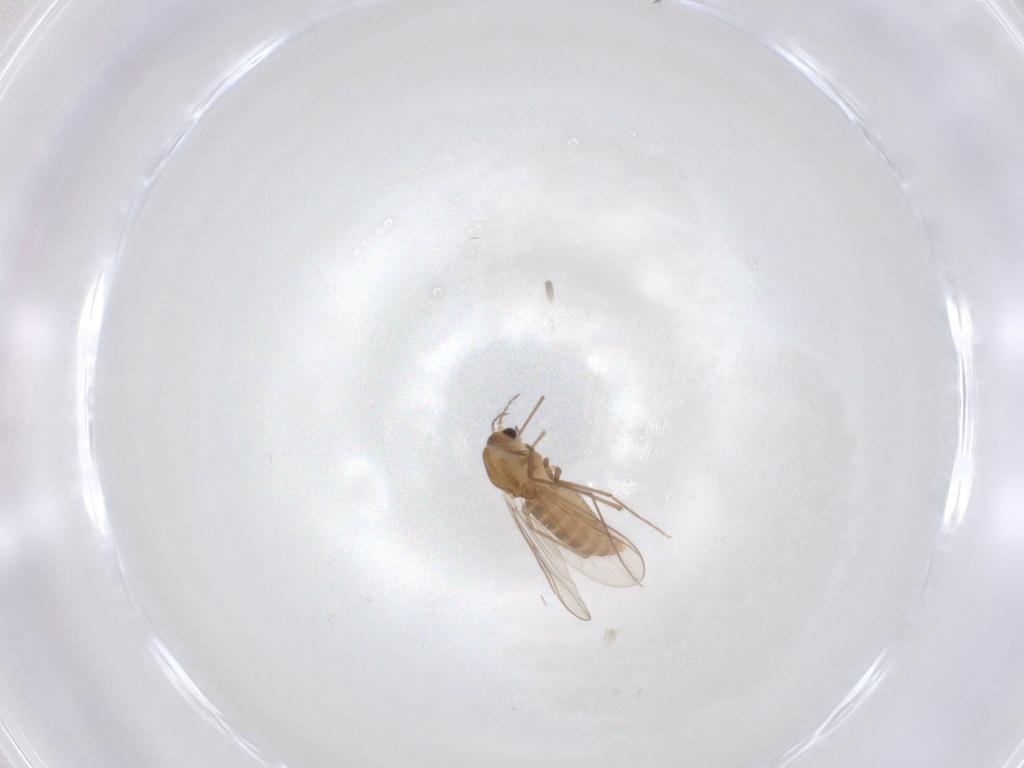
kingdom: Animalia
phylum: Arthropoda
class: Insecta
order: Diptera
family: Chironomidae
